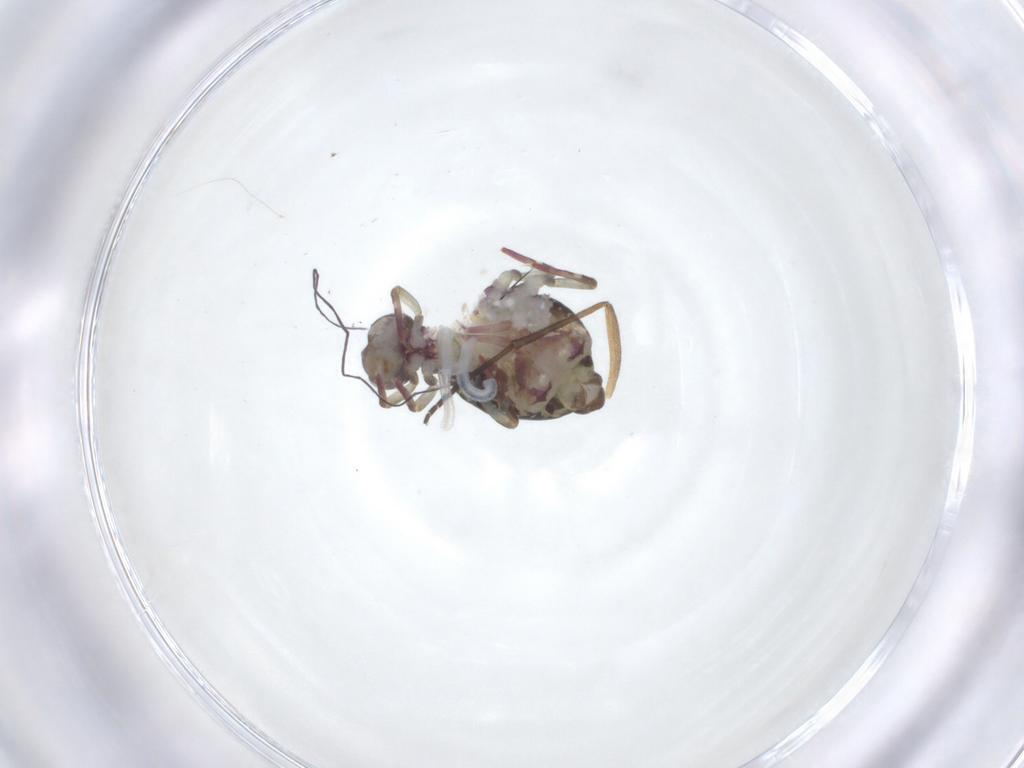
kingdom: Animalia
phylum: Arthropoda
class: Collembola
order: Symphypleona
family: Dicyrtomidae
